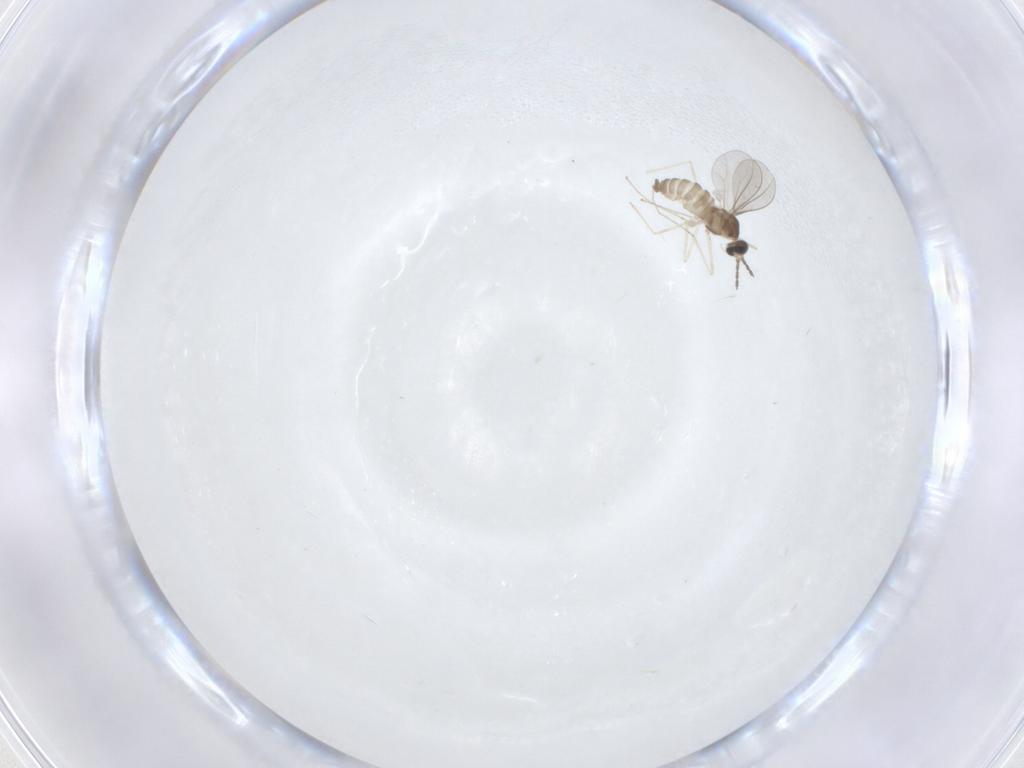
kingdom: Animalia
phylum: Arthropoda
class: Insecta
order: Diptera
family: Cecidomyiidae
